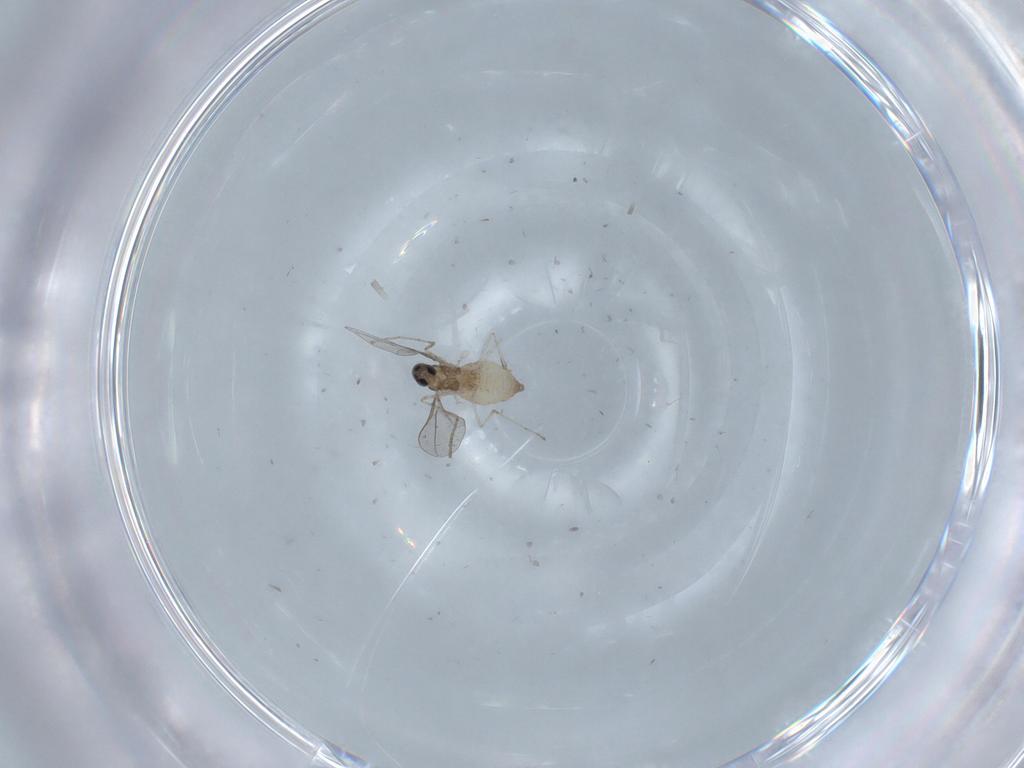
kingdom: Animalia
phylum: Arthropoda
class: Insecta
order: Diptera
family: Cecidomyiidae
